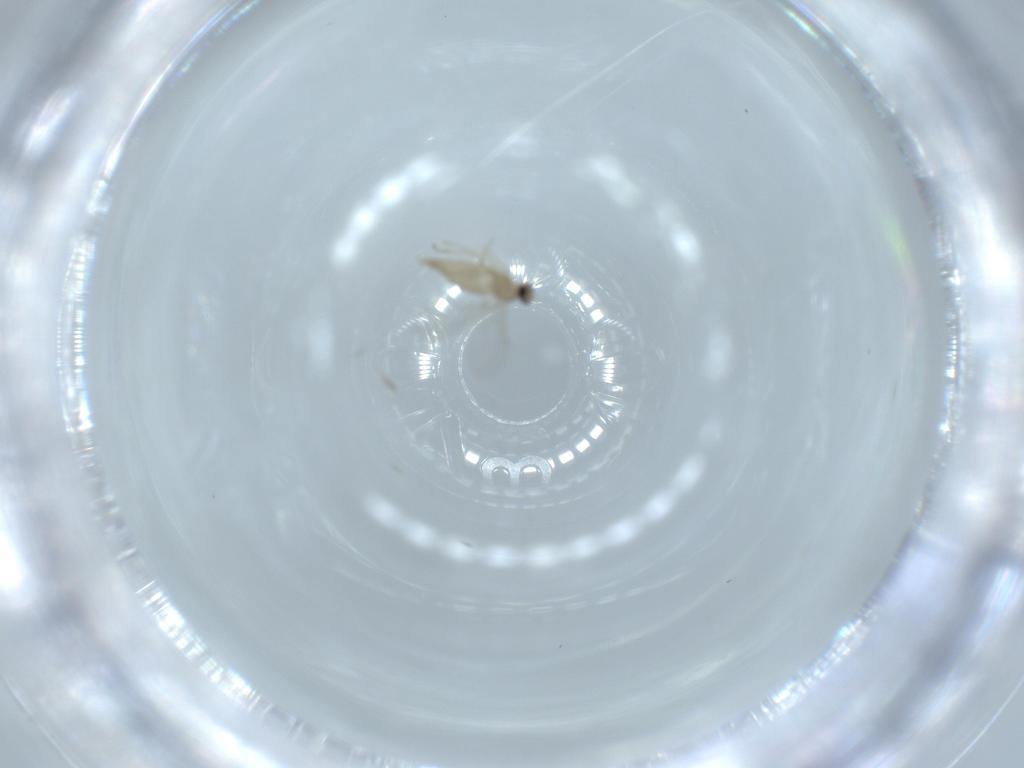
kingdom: Animalia
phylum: Arthropoda
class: Insecta
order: Diptera
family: Cecidomyiidae
